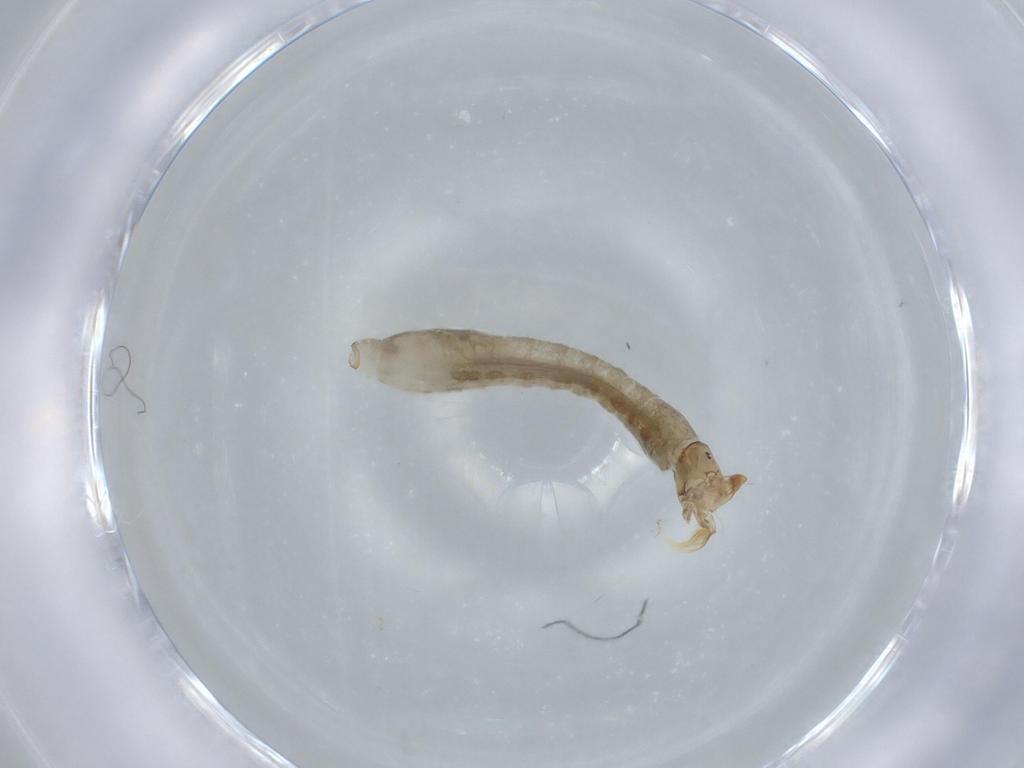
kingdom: Animalia
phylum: Arthropoda
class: Insecta
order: Diptera
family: Simuliidae
